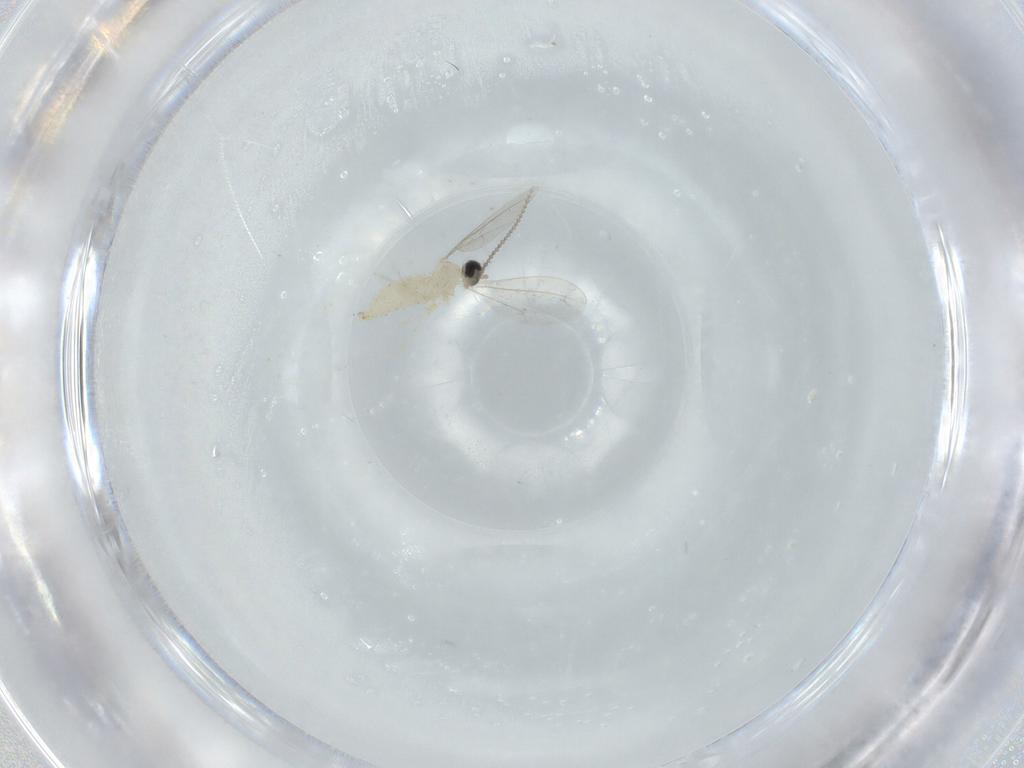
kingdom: Animalia
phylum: Arthropoda
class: Insecta
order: Diptera
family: Cecidomyiidae
